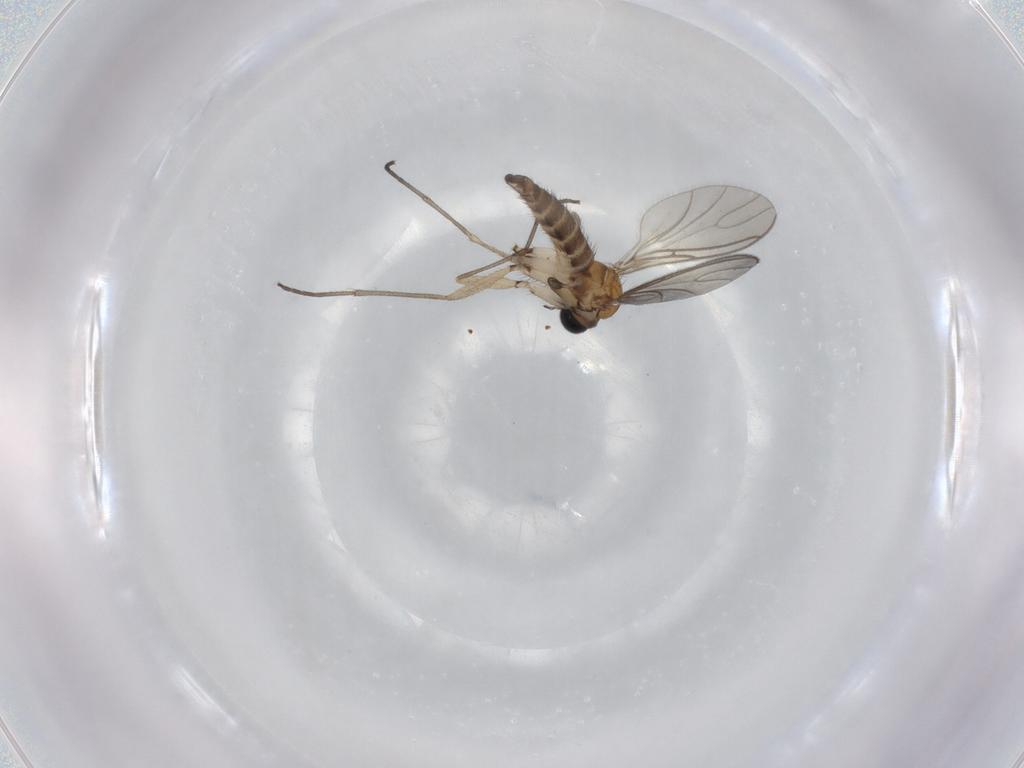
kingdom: Animalia
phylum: Arthropoda
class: Insecta
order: Diptera
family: Sciaridae
